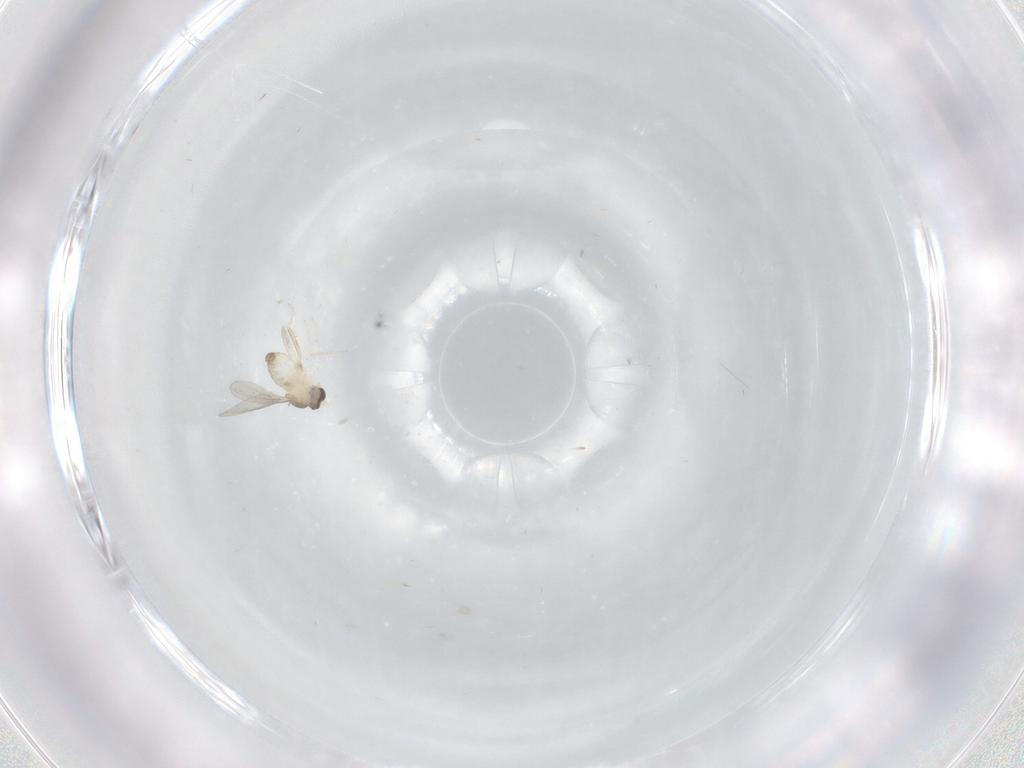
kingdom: Animalia
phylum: Arthropoda
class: Insecta
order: Diptera
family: Phoridae
